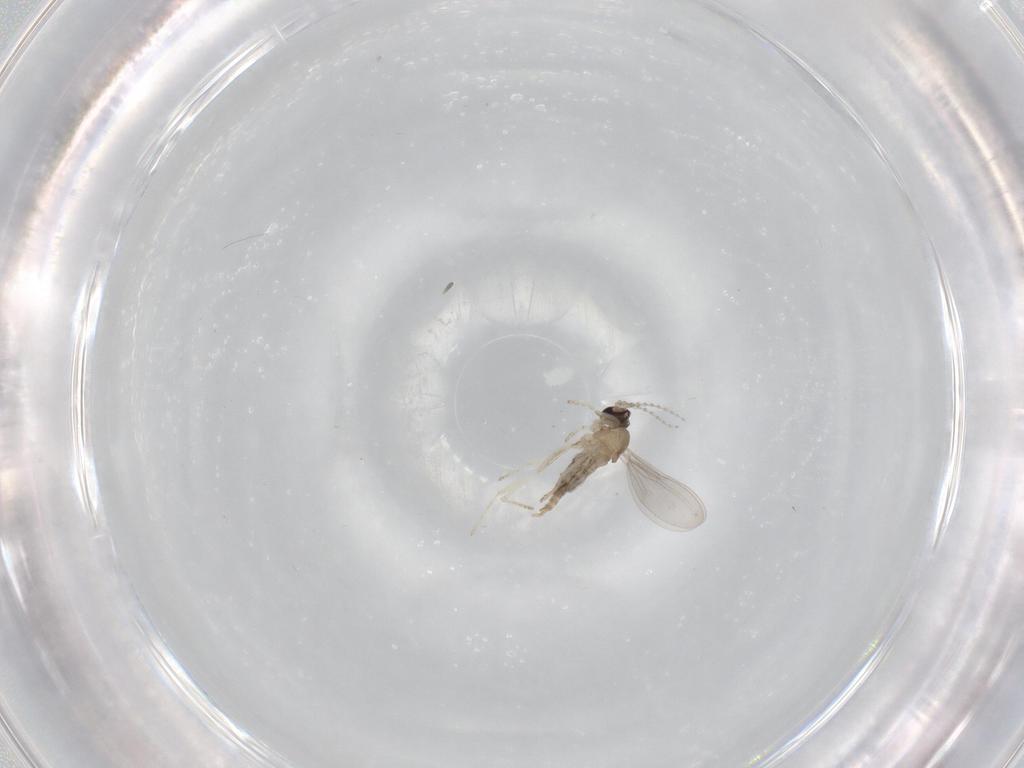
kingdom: Animalia
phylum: Arthropoda
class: Insecta
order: Diptera
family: Cecidomyiidae
